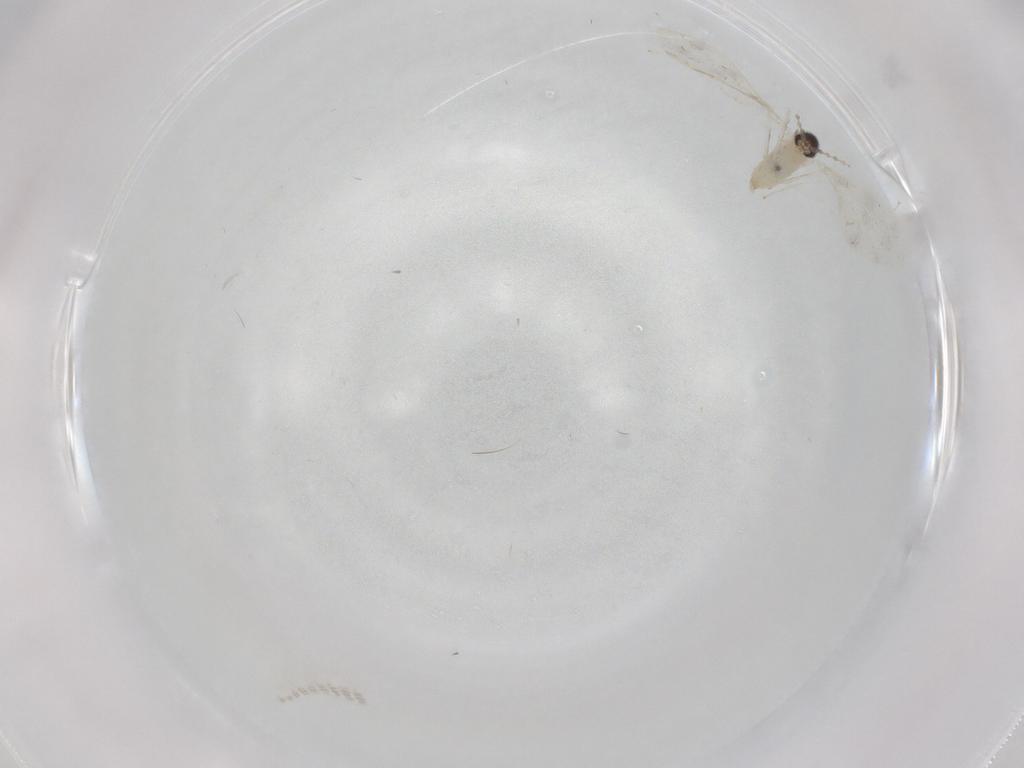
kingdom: Animalia
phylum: Arthropoda
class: Insecta
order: Diptera
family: Cecidomyiidae
